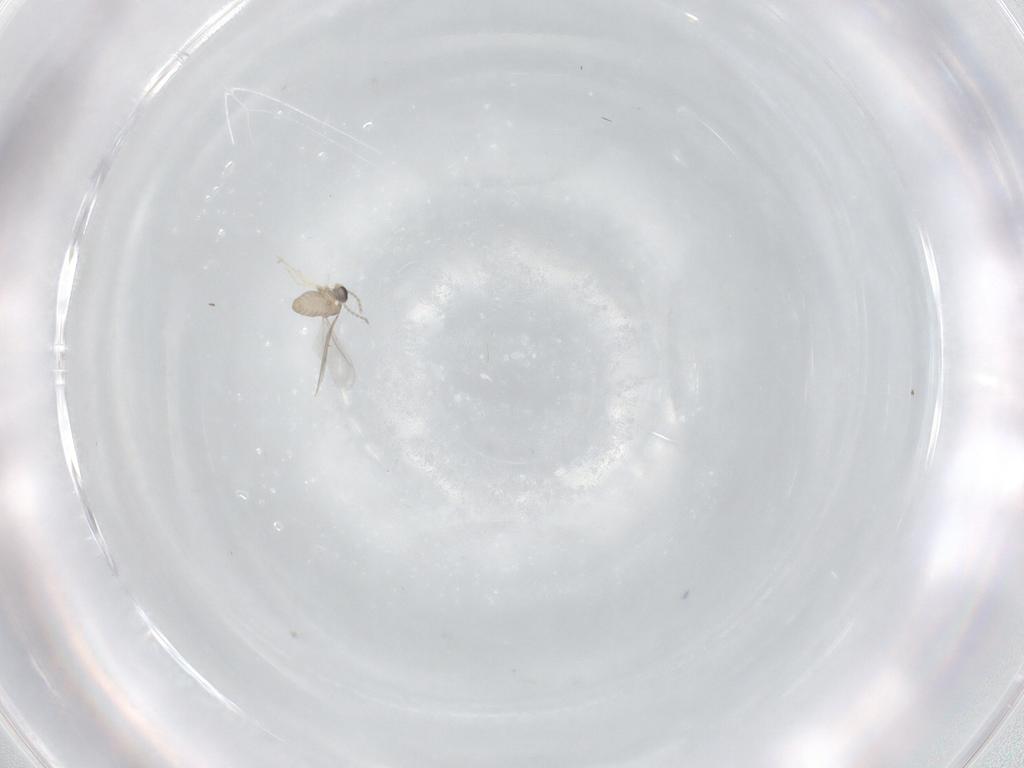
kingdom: Animalia
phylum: Arthropoda
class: Insecta
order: Diptera
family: Cecidomyiidae
